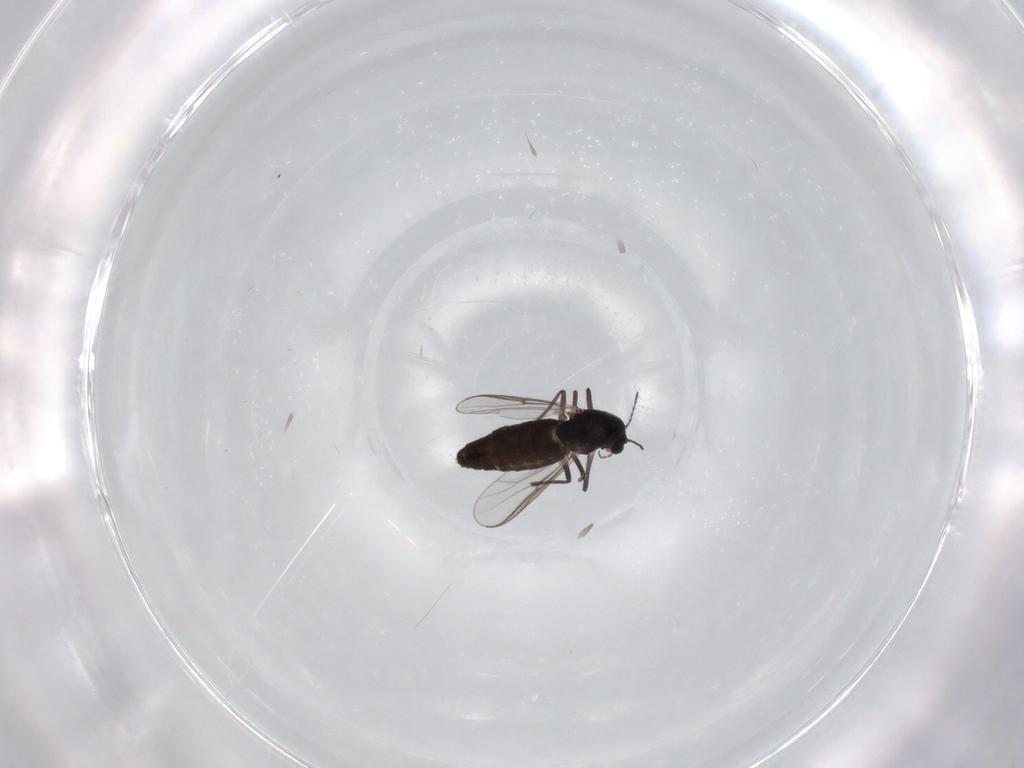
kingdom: Animalia
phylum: Arthropoda
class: Insecta
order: Diptera
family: Chironomidae
